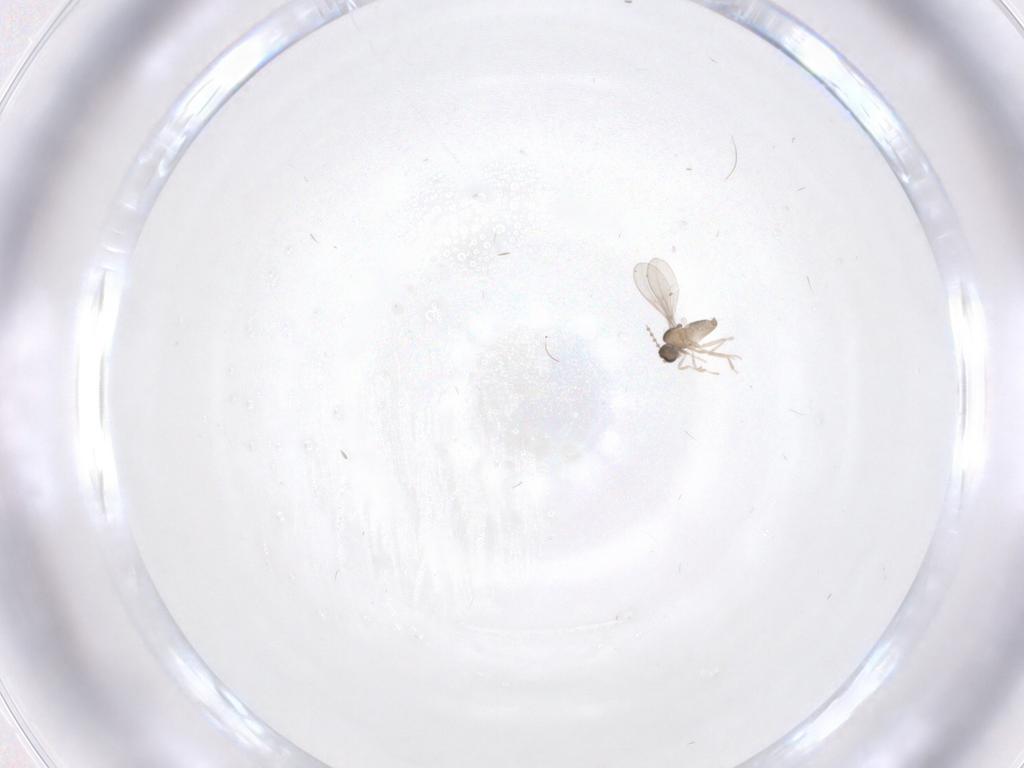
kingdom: Animalia
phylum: Arthropoda
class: Insecta
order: Diptera
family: Cecidomyiidae
